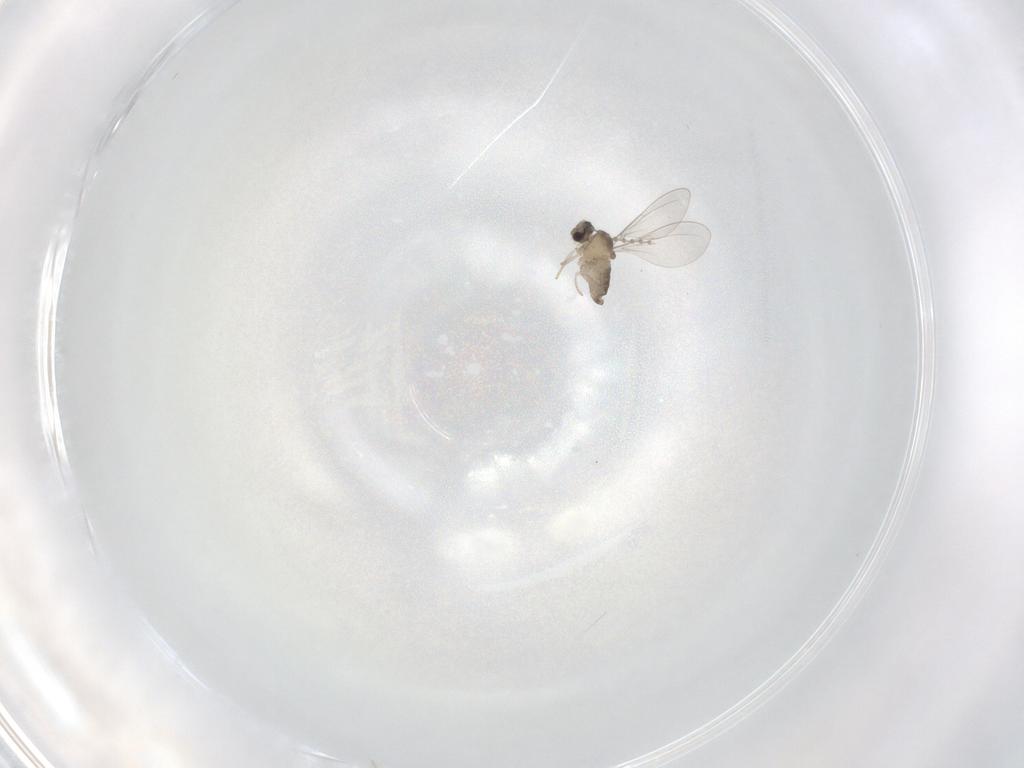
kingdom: Animalia
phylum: Arthropoda
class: Insecta
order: Diptera
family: Cecidomyiidae
